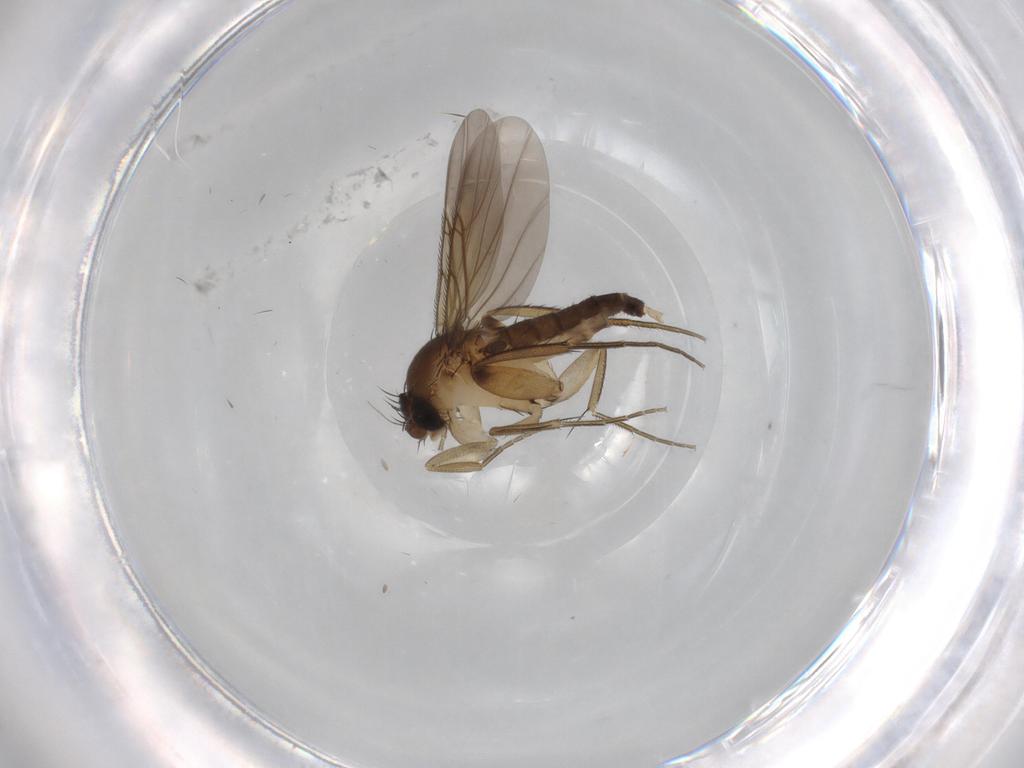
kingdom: Animalia
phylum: Arthropoda
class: Insecta
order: Diptera
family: Phoridae
